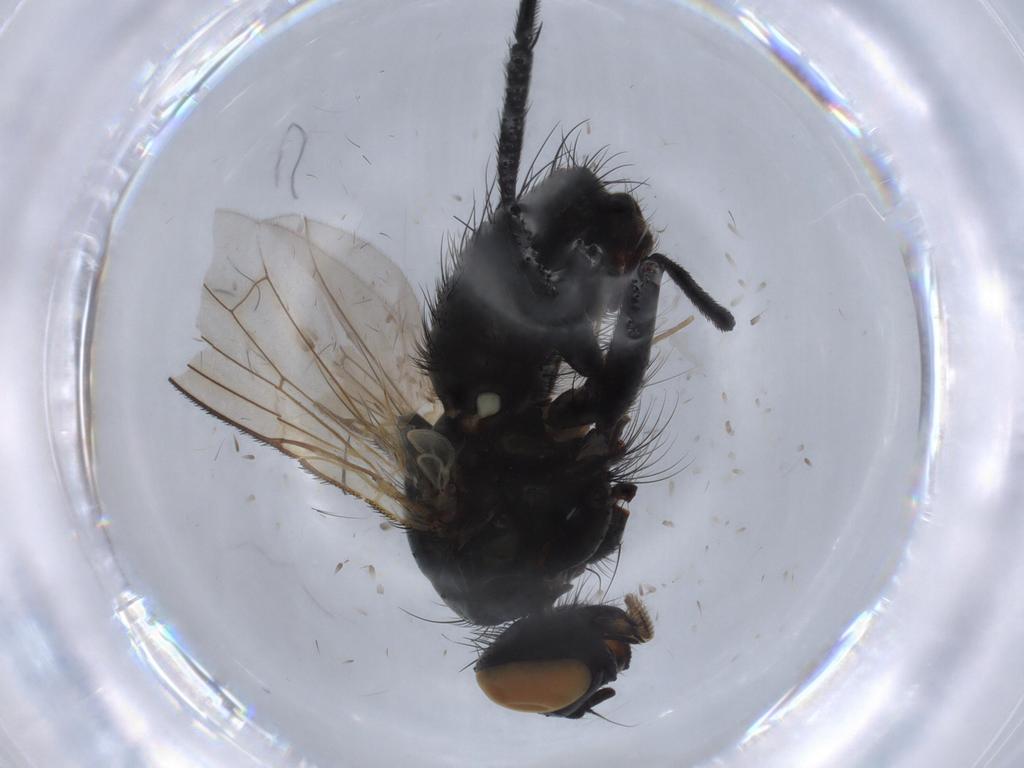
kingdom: Animalia
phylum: Arthropoda
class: Insecta
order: Diptera
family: Muscidae
